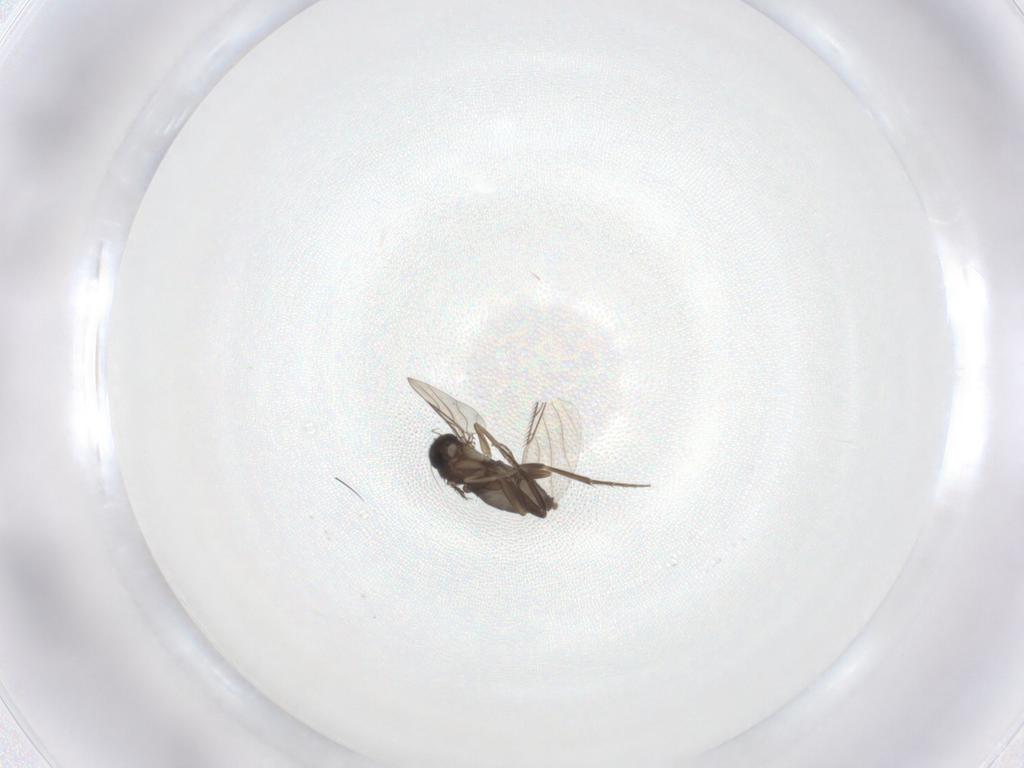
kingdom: Animalia
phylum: Arthropoda
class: Insecta
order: Diptera
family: Phoridae
